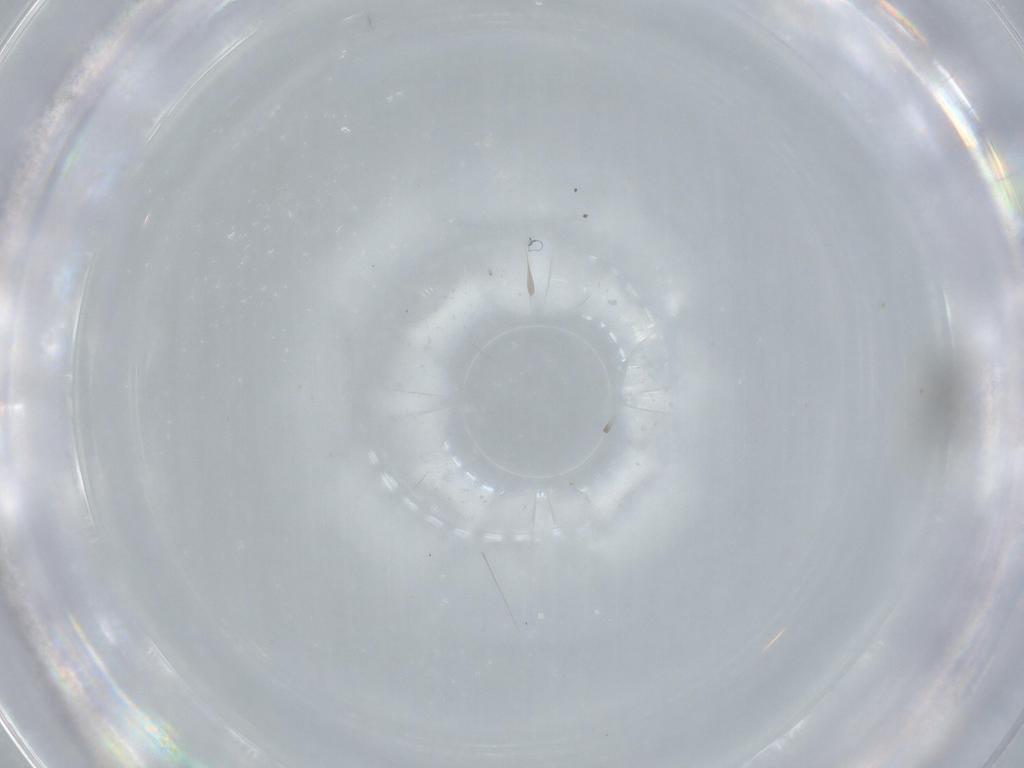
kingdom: Animalia
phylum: Arthropoda
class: Insecta
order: Diptera
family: Cecidomyiidae
